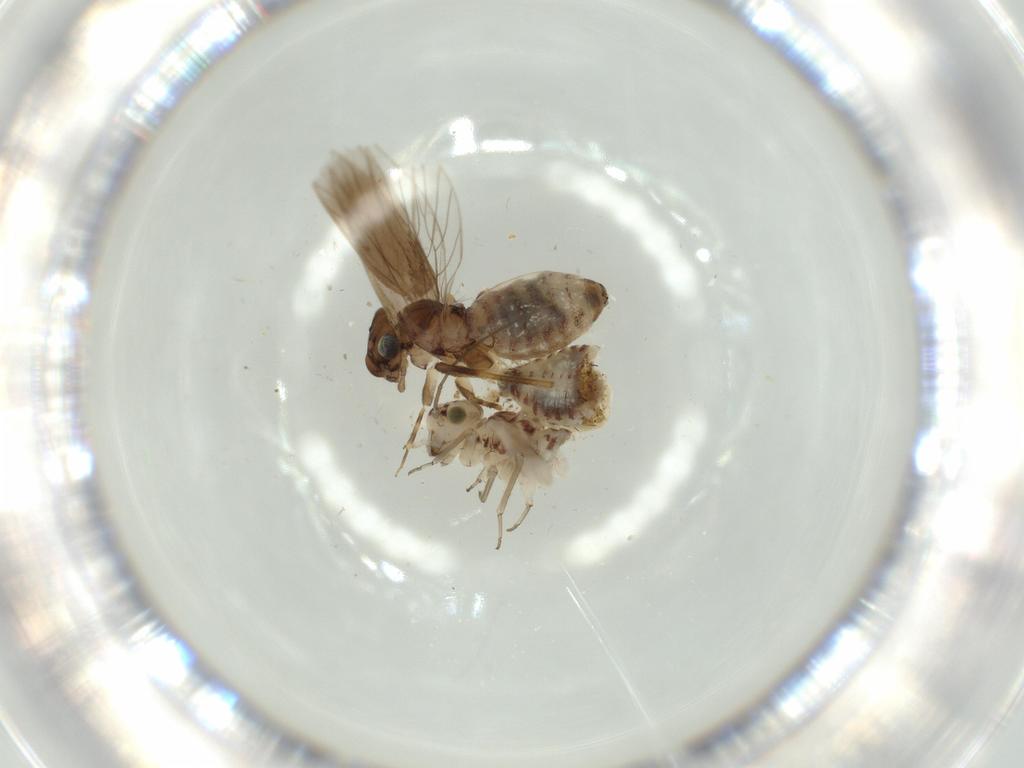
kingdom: Animalia
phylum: Arthropoda
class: Insecta
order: Psocodea
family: Lepidopsocidae
